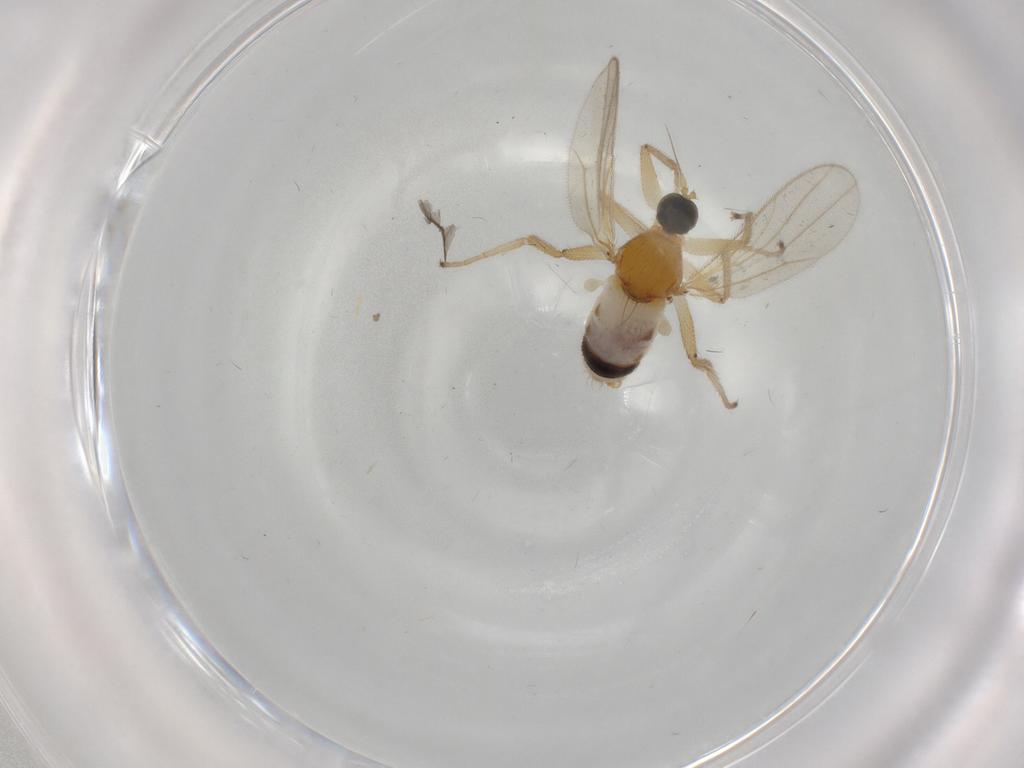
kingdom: Animalia
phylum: Arthropoda
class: Insecta
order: Diptera
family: Hybotidae
